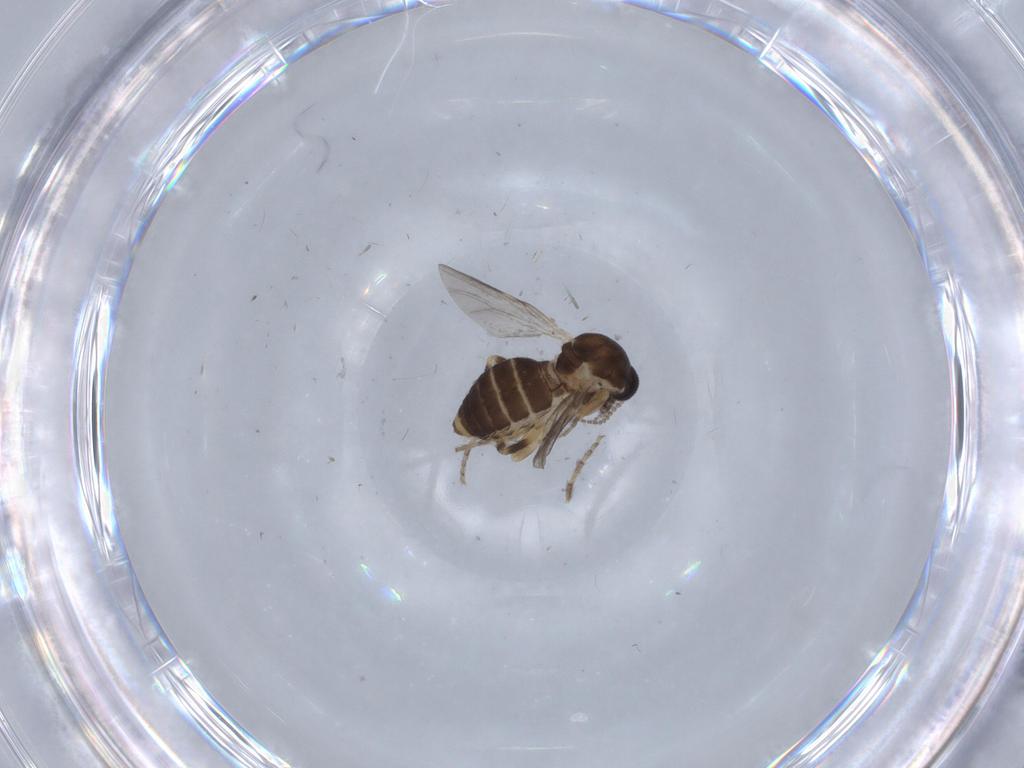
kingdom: Animalia
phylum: Arthropoda
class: Insecta
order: Diptera
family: Ceratopogonidae
